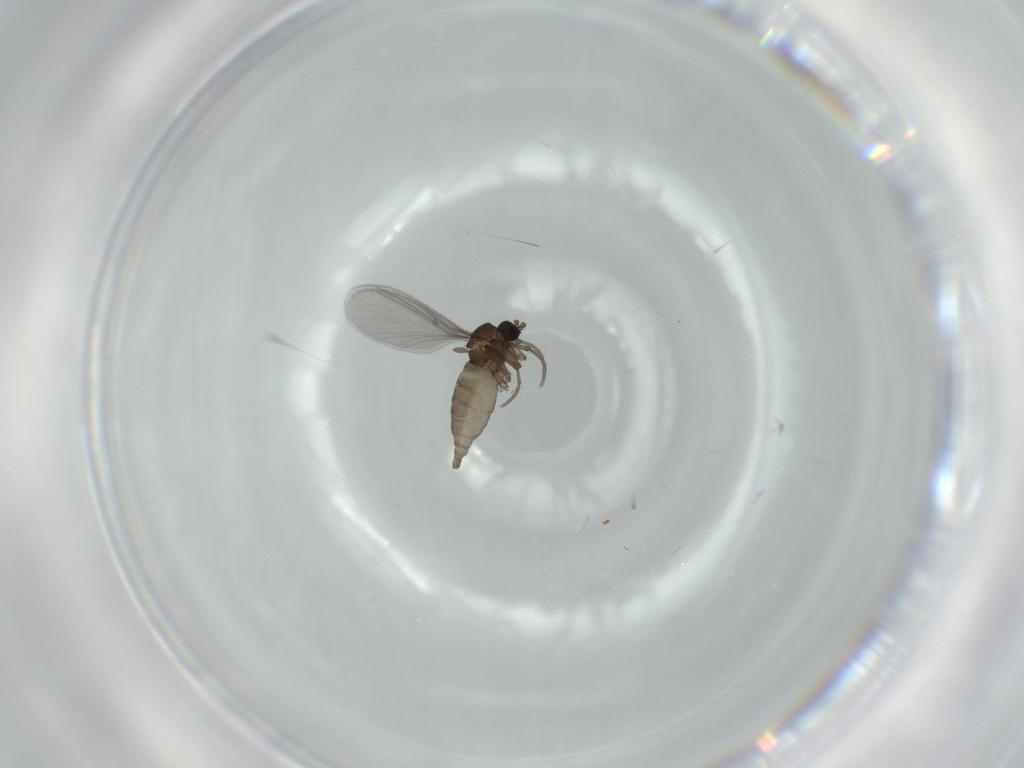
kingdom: Animalia
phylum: Arthropoda
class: Insecta
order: Diptera
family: Sciaridae
